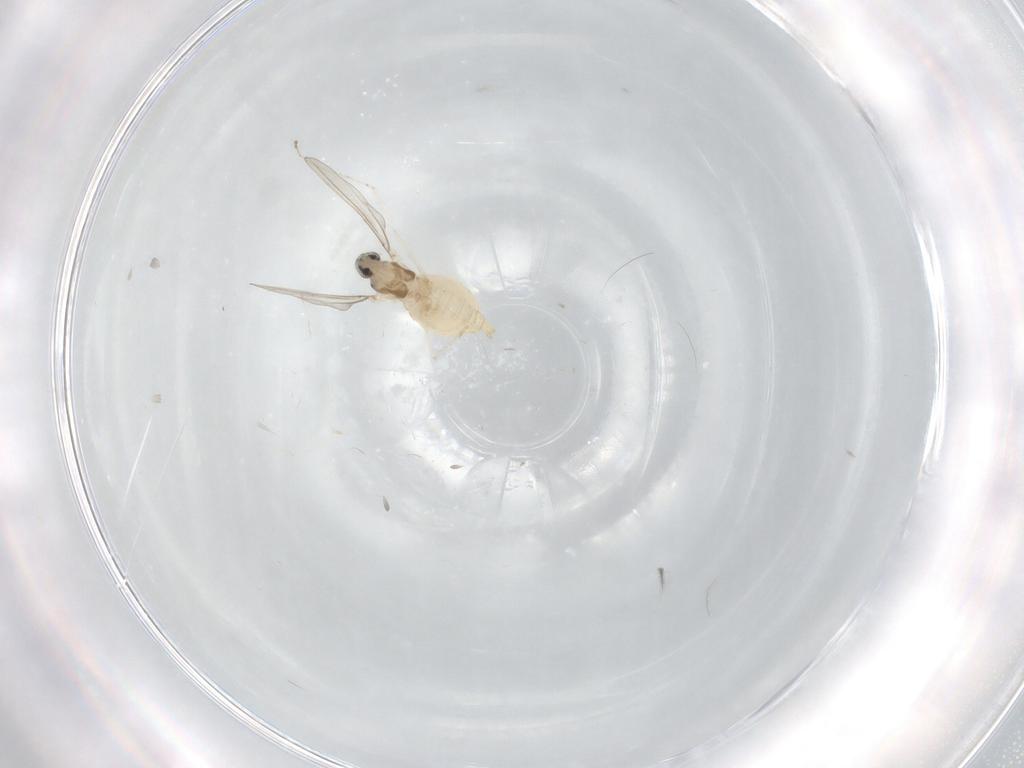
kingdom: Animalia
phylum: Arthropoda
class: Insecta
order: Diptera
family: Cecidomyiidae
